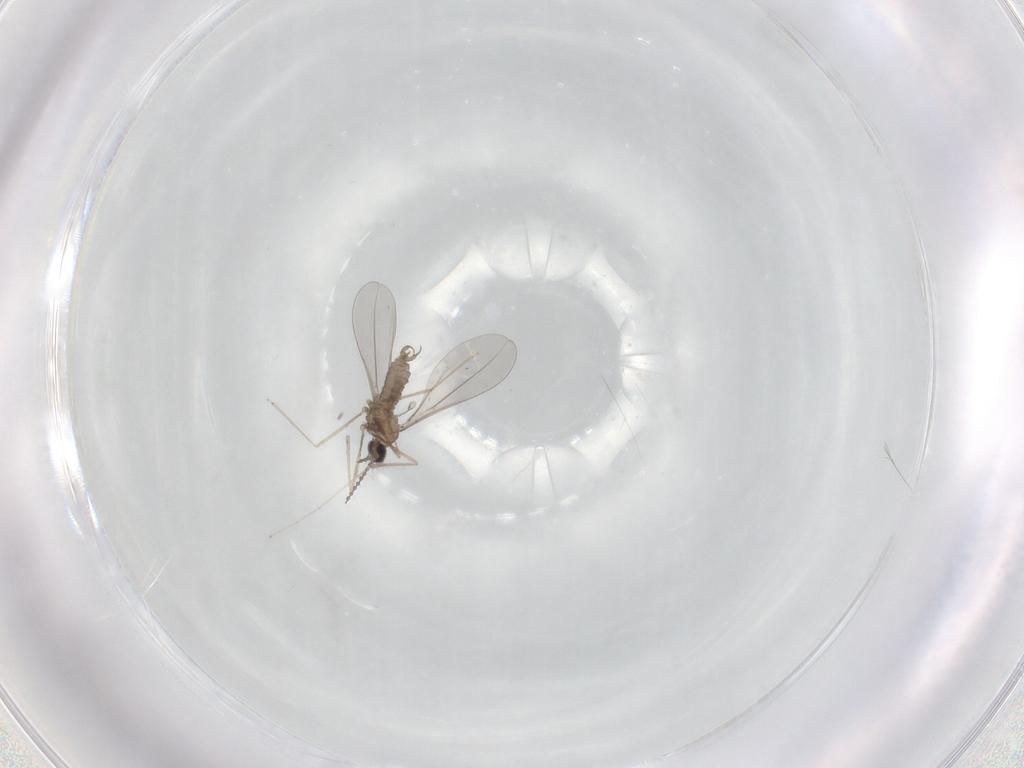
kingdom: Animalia
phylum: Arthropoda
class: Insecta
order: Diptera
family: Cecidomyiidae
